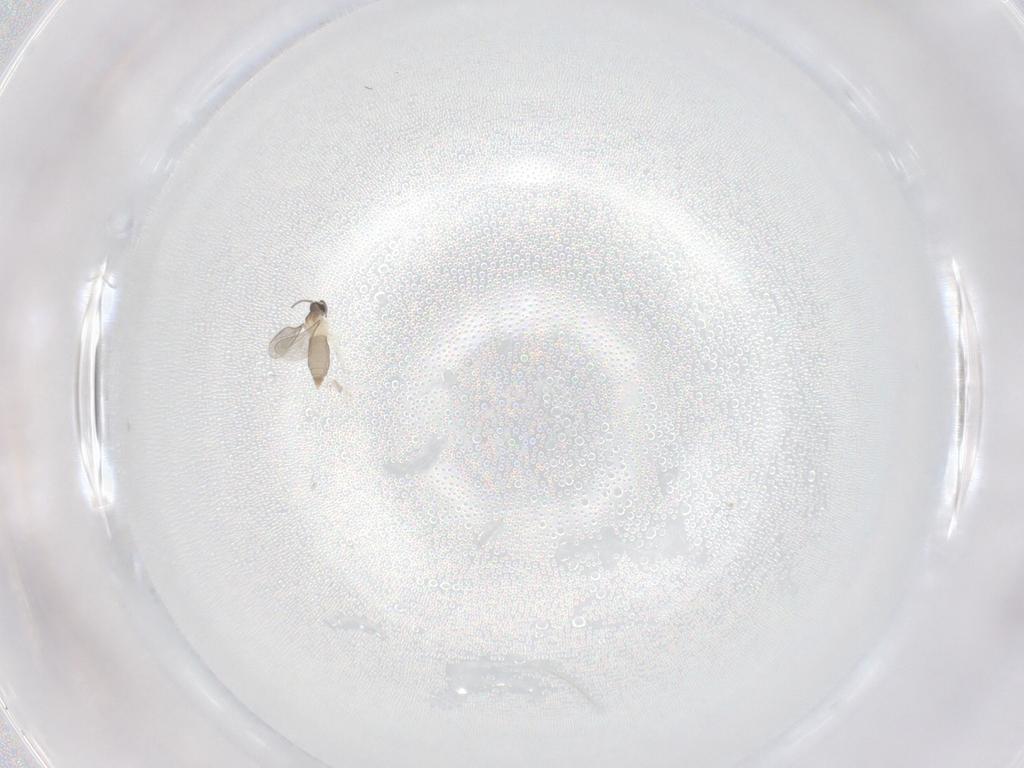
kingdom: Animalia
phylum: Arthropoda
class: Insecta
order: Diptera
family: Cecidomyiidae
